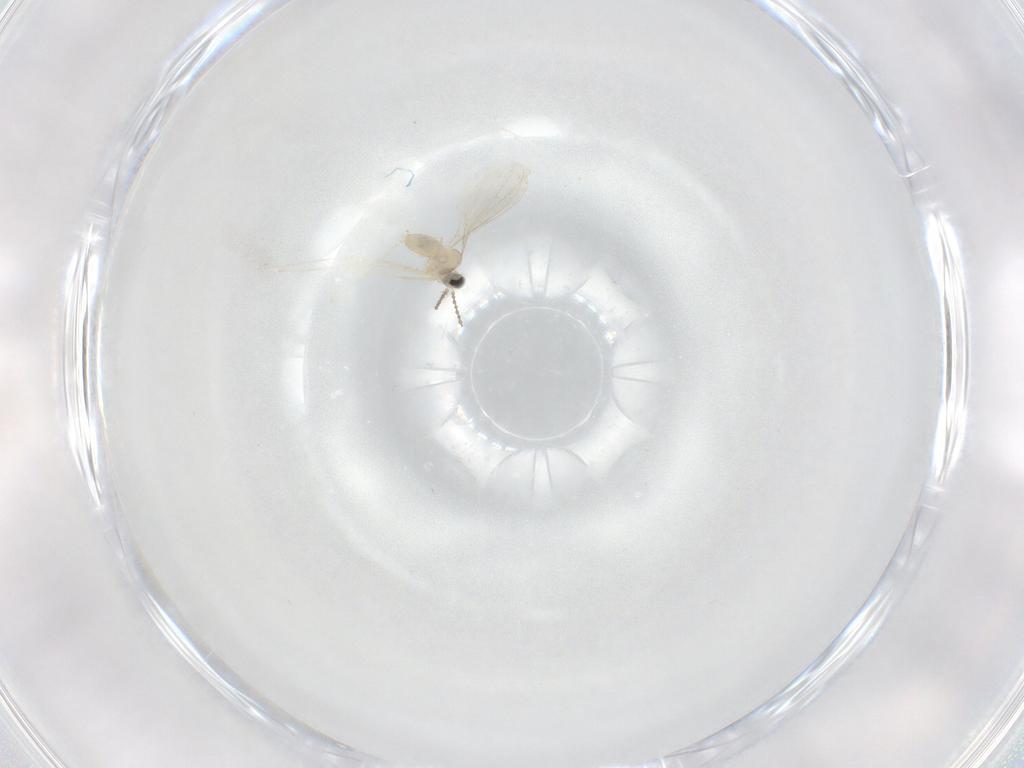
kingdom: Animalia
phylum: Arthropoda
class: Insecta
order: Diptera
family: Cecidomyiidae
